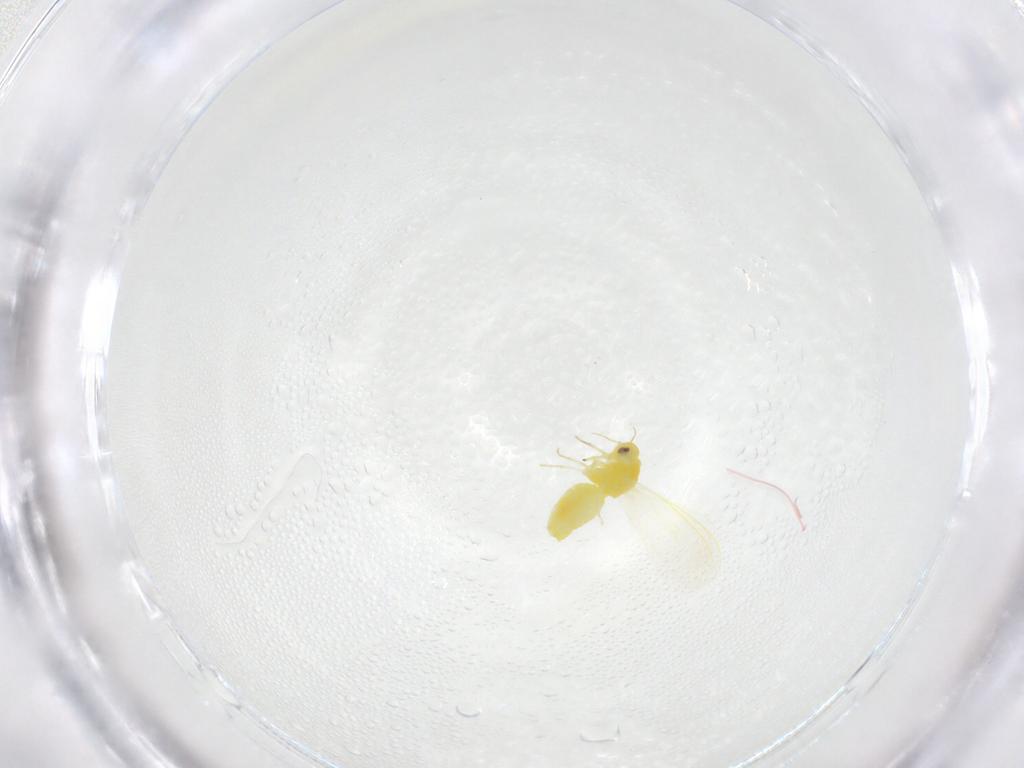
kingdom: Animalia
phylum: Arthropoda
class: Insecta
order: Hemiptera
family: Aleyrodidae
